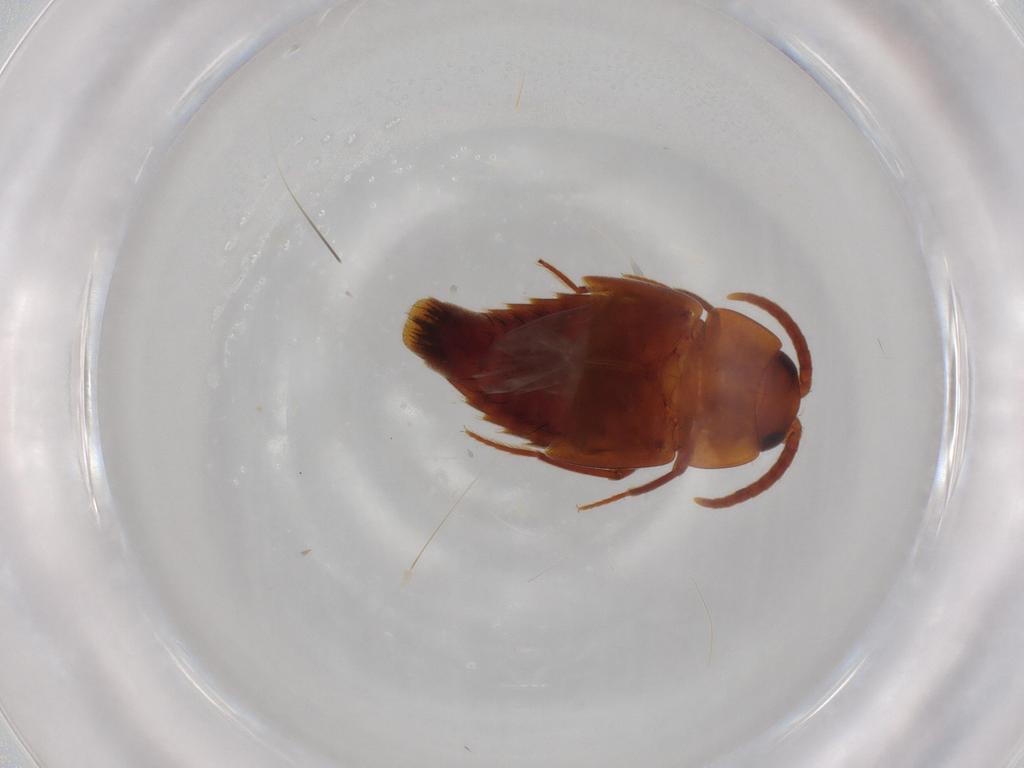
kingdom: Animalia
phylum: Arthropoda
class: Insecta
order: Coleoptera
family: Staphylinidae
